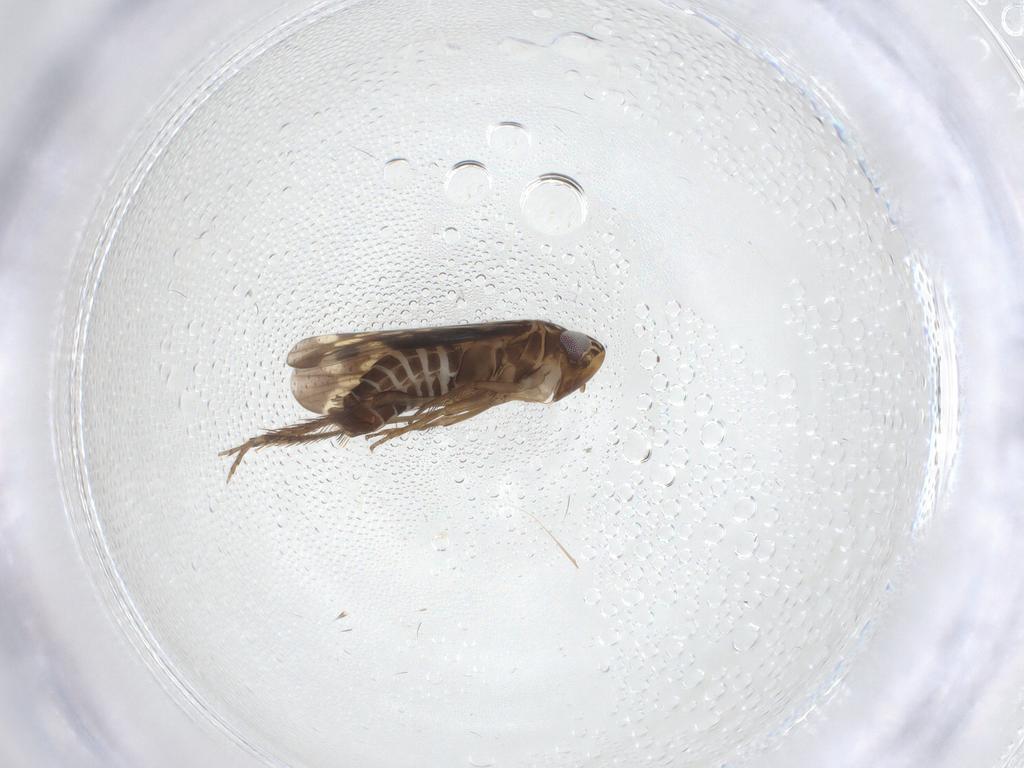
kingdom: Animalia
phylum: Arthropoda
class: Insecta
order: Hemiptera
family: Cicadellidae
